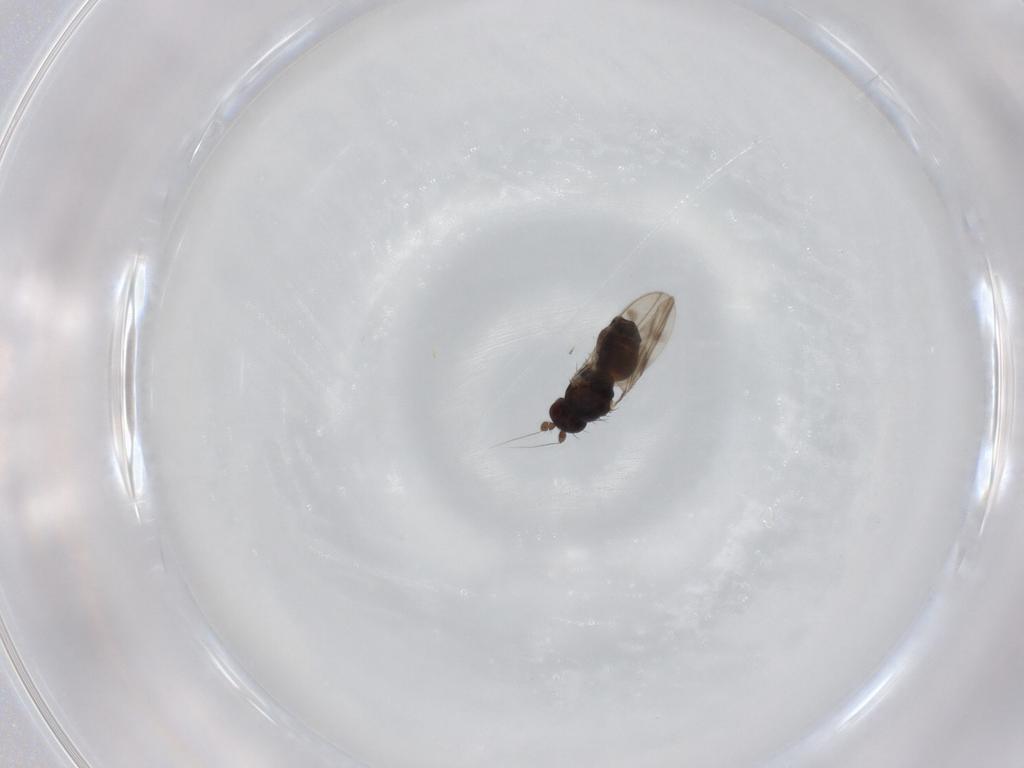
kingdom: Animalia
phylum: Arthropoda
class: Insecta
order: Diptera
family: Sphaeroceridae
